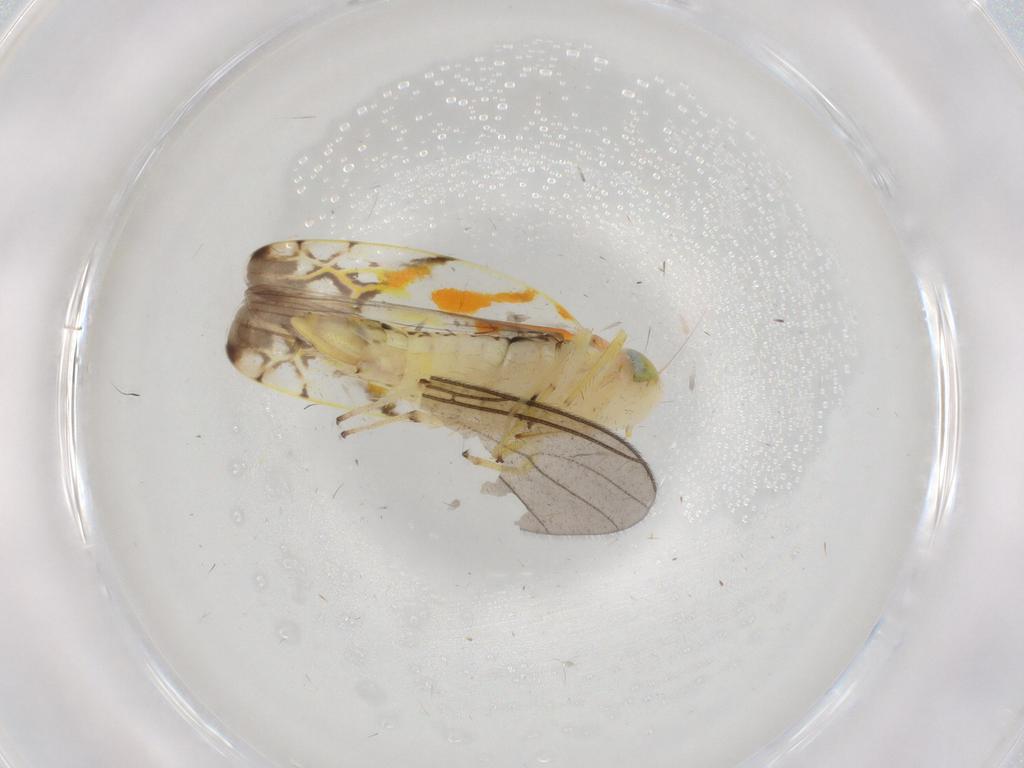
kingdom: Animalia
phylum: Arthropoda
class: Insecta
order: Hemiptera
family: Cicadellidae
